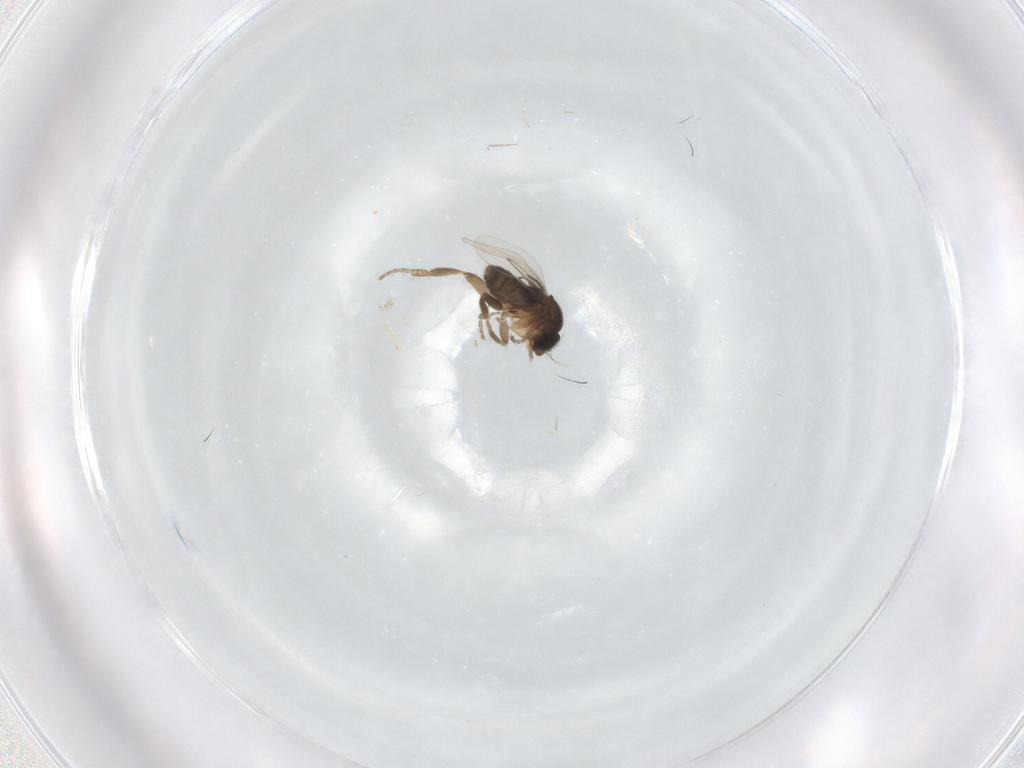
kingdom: Animalia
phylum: Arthropoda
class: Insecta
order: Diptera
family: Phoridae
